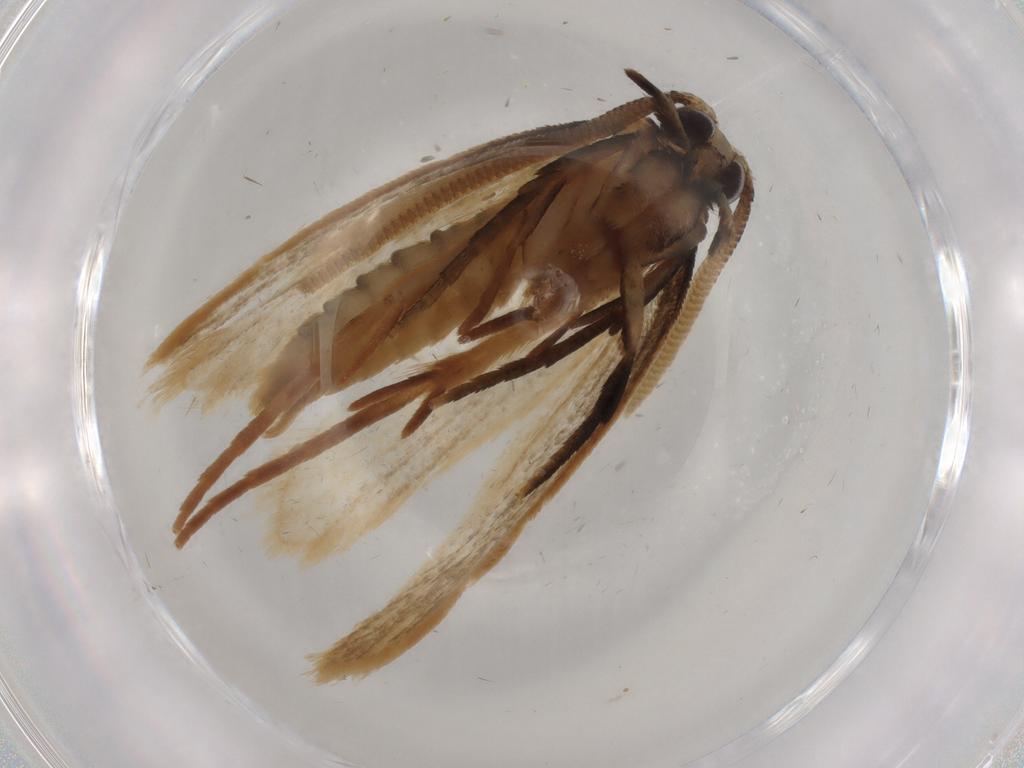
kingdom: Animalia
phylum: Arthropoda
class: Insecta
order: Lepidoptera
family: Tineidae
